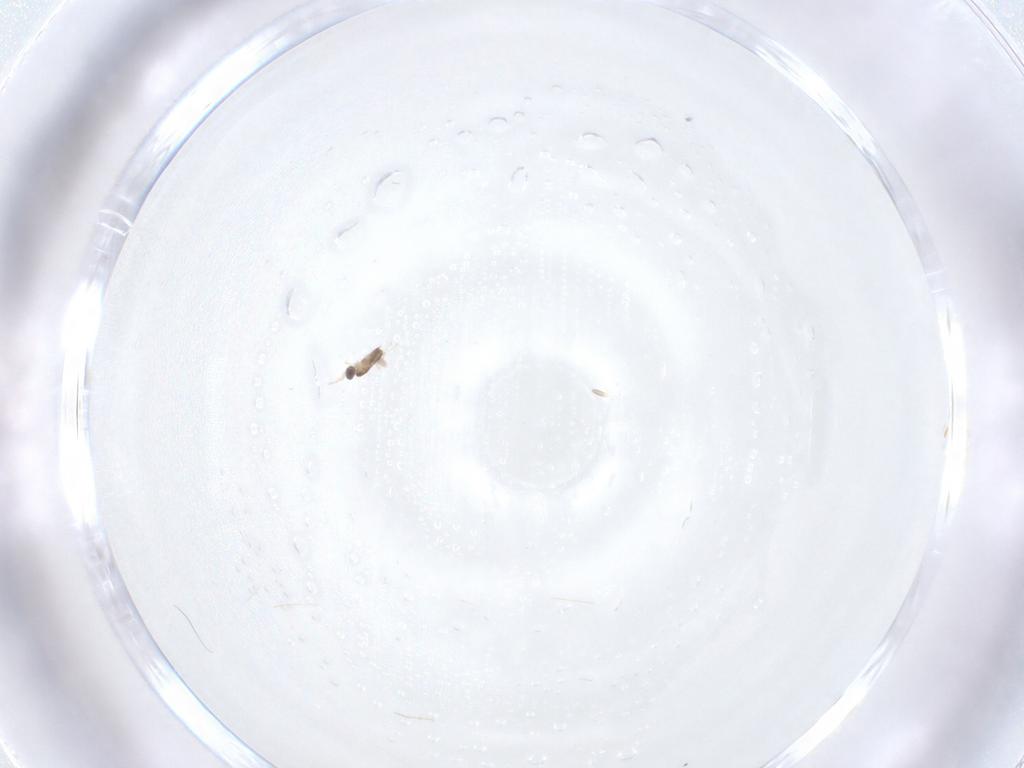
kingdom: Animalia
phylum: Arthropoda
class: Insecta
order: Hymenoptera
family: Mymaridae
